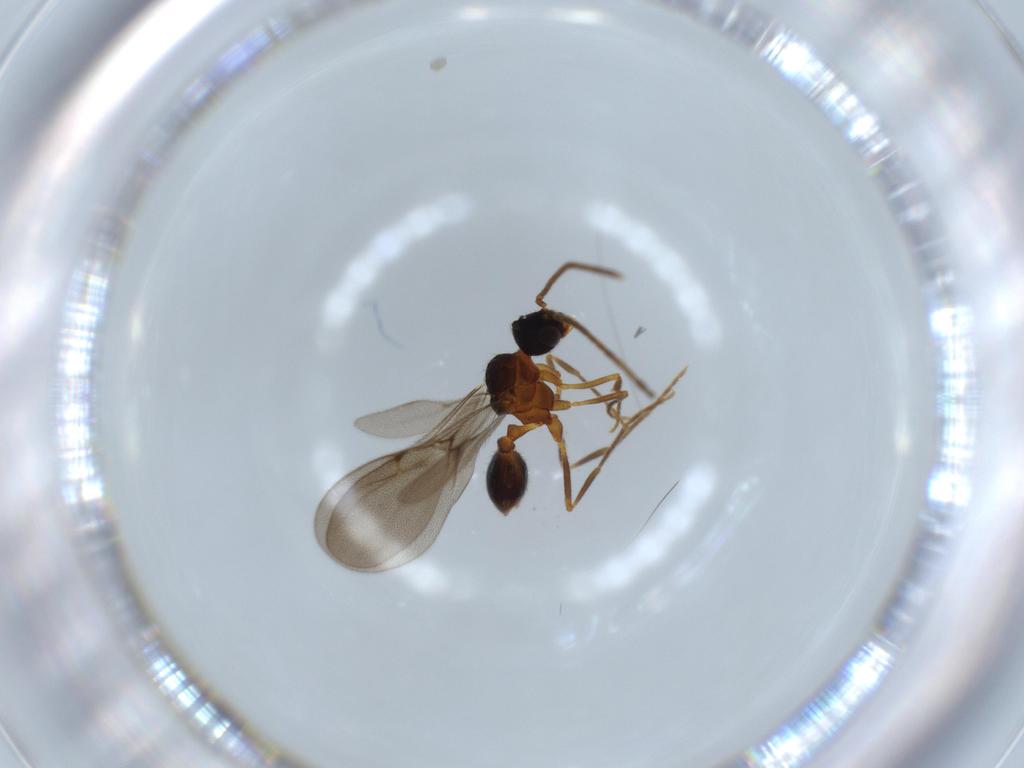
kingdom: Animalia
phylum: Arthropoda
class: Insecta
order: Hymenoptera
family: Formicidae
